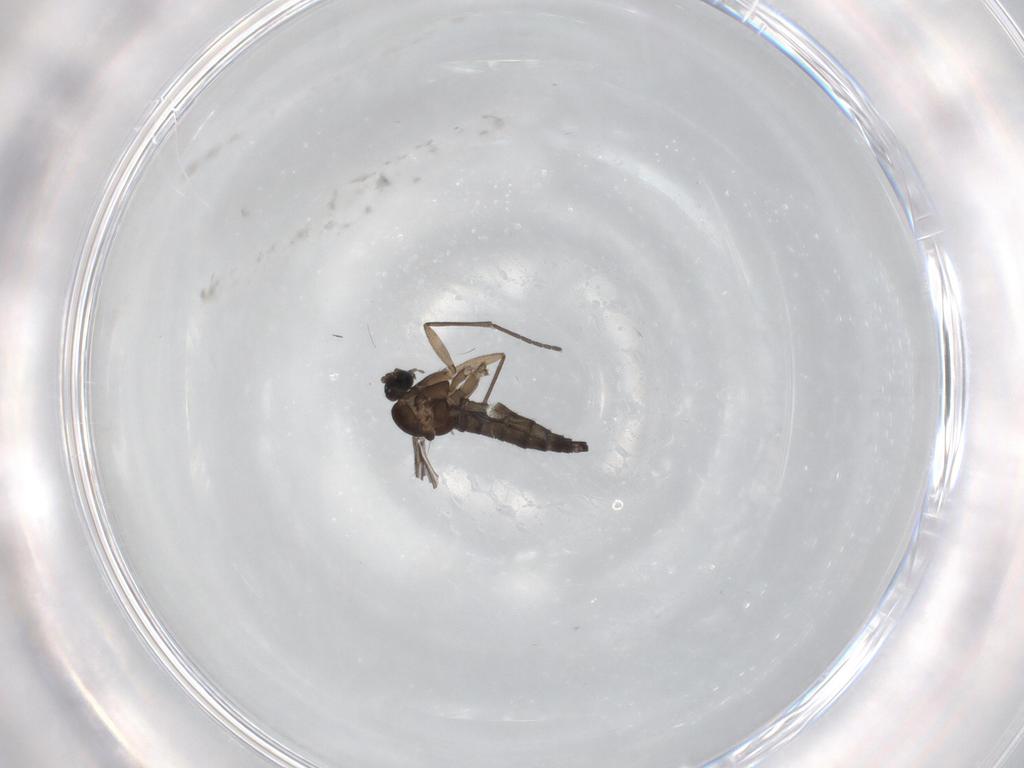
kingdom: Animalia
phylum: Arthropoda
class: Insecta
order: Diptera
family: Sciaridae
